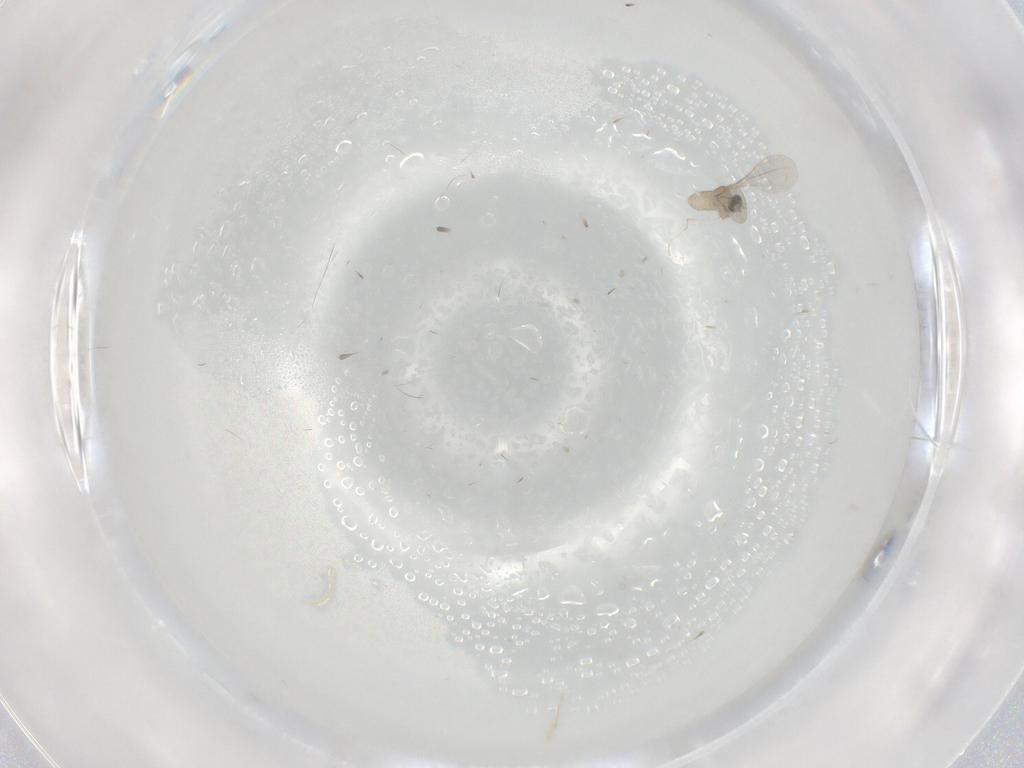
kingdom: Animalia
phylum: Arthropoda
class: Insecta
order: Diptera
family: Cecidomyiidae
